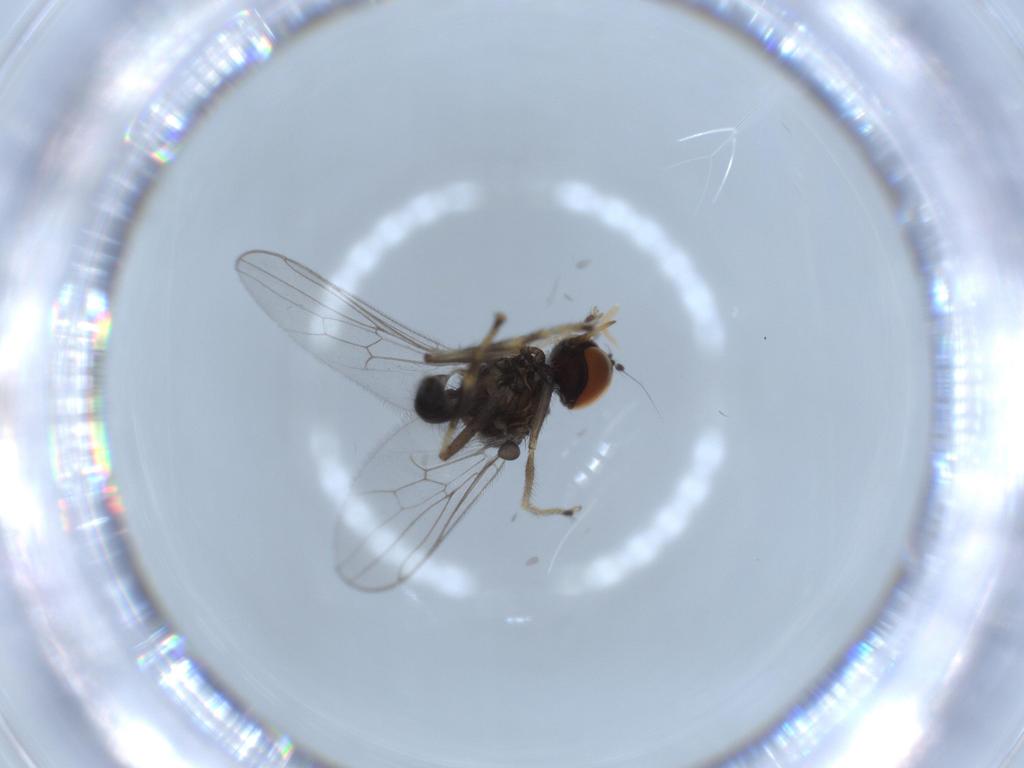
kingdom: Animalia
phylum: Arthropoda
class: Insecta
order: Diptera
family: Hybotidae
